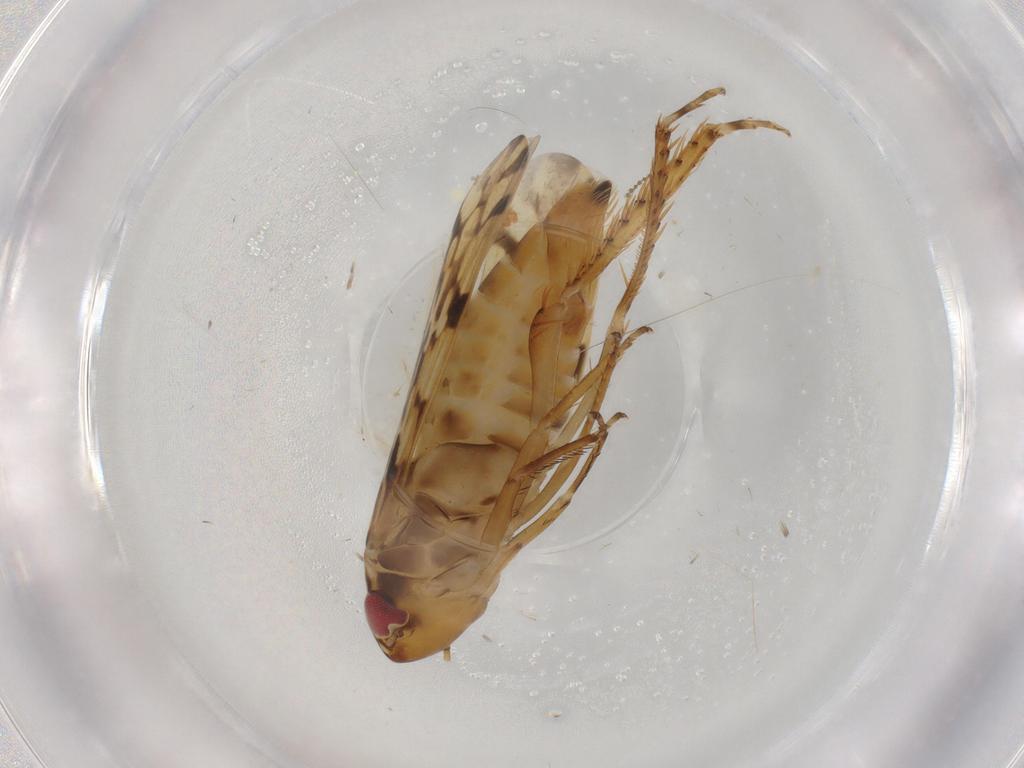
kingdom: Animalia
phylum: Arthropoda
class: Insecta
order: Hemiptera
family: Cicadellidae
